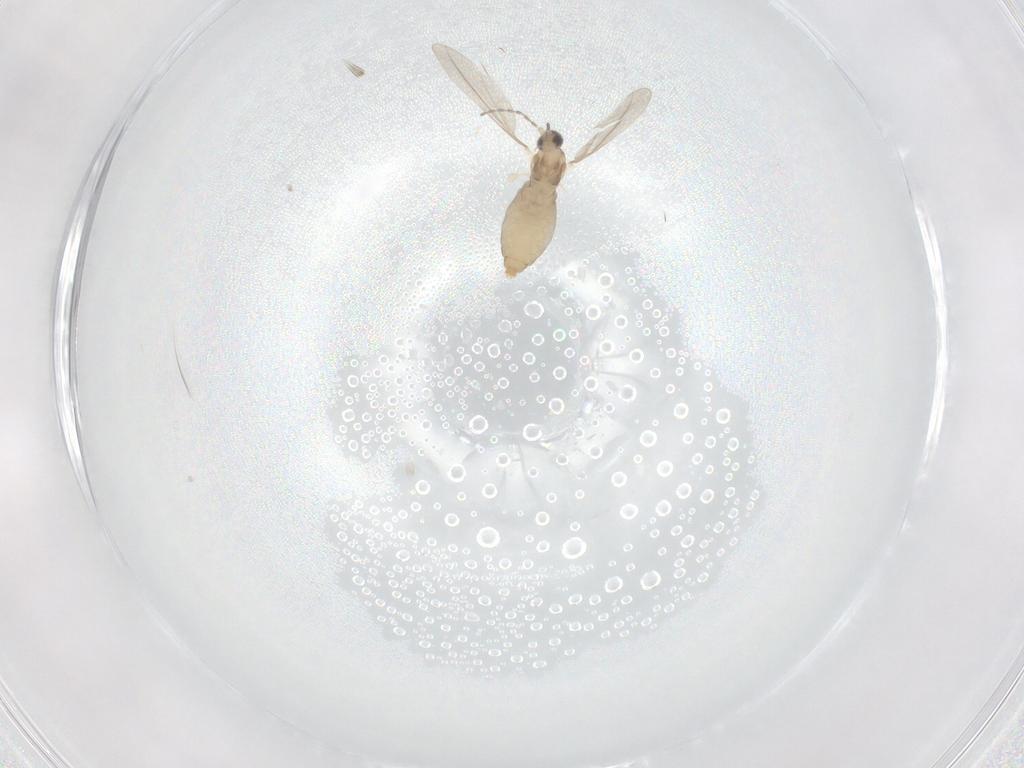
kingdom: Animalia
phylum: Arthropoda
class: Insecta
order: Diptera
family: Cecidomyiidae
